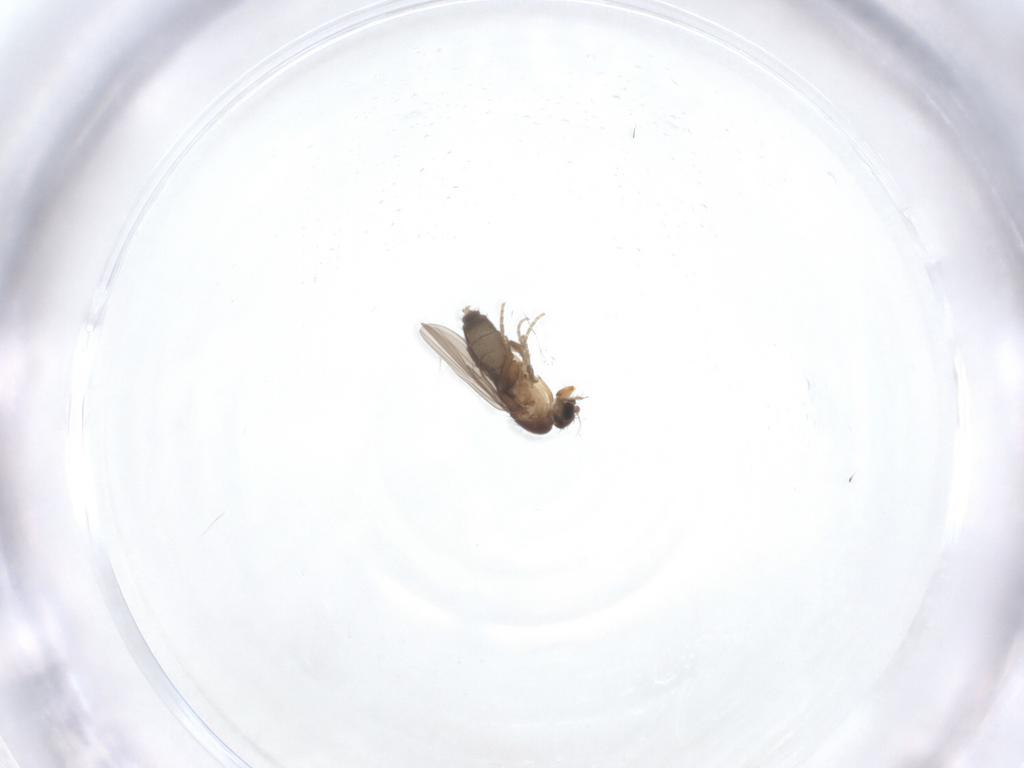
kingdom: Animalia
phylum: Arthropoda
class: Insecta
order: Diptera
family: Phoridae
